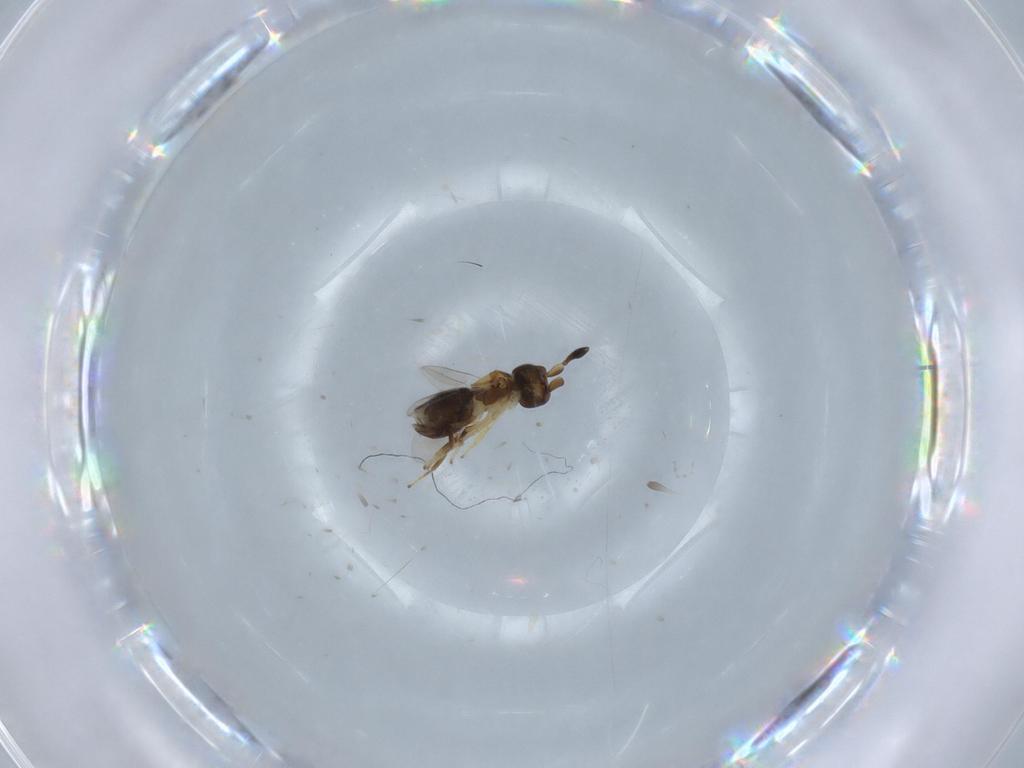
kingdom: Animalia
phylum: Arthropoda
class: Insecta
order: Hymenoptera
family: Encyrtidae
